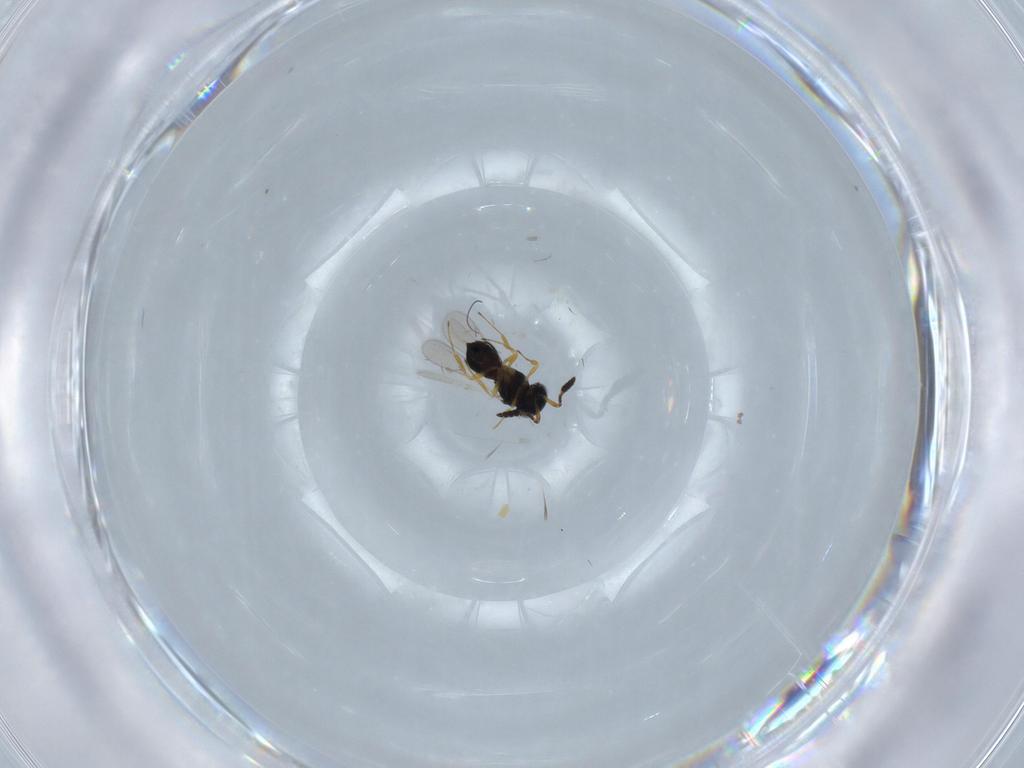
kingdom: Animalia
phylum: Arthropoda
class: Insecta
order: Hymenoptera
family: Scelionidae
